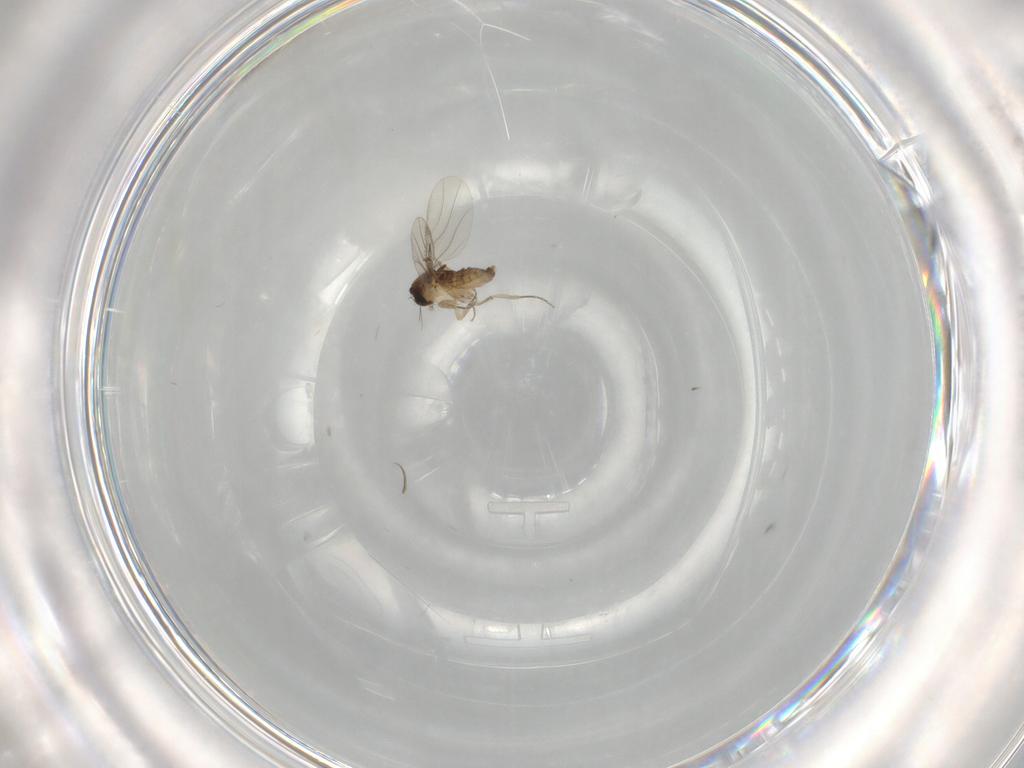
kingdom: Animalia
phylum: Arthropoda
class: Insecta
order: Diptera
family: Phoridae
